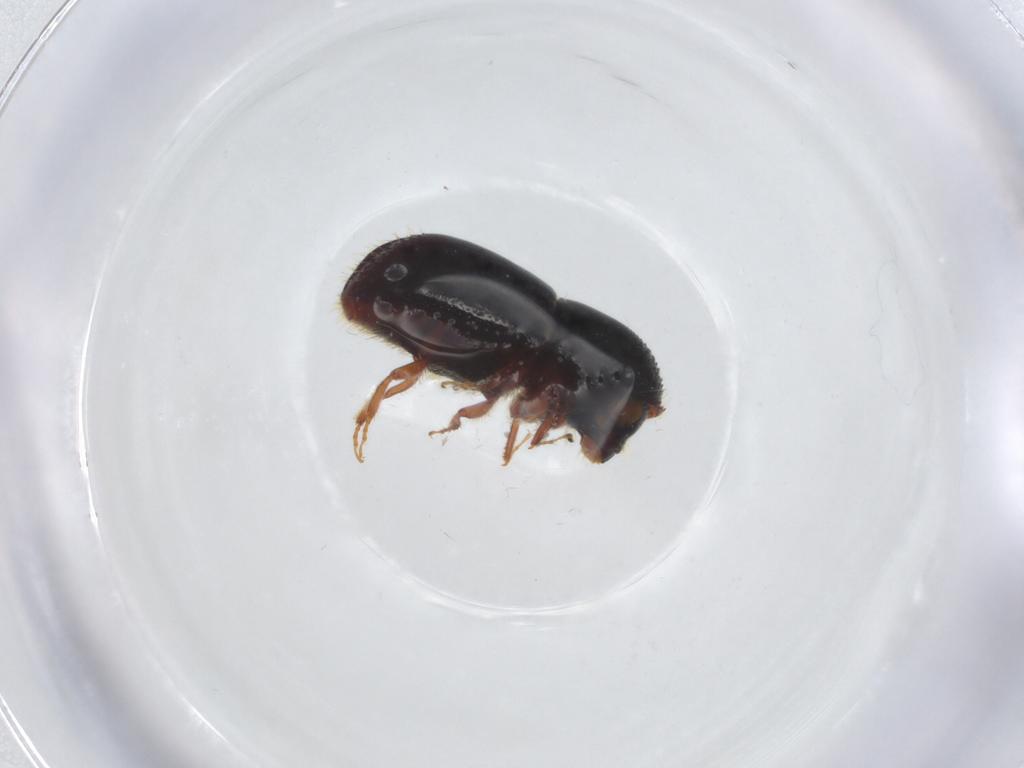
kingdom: Animalia
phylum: Arthropoda
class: Insecta
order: Coleoptera
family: Curculionidae
